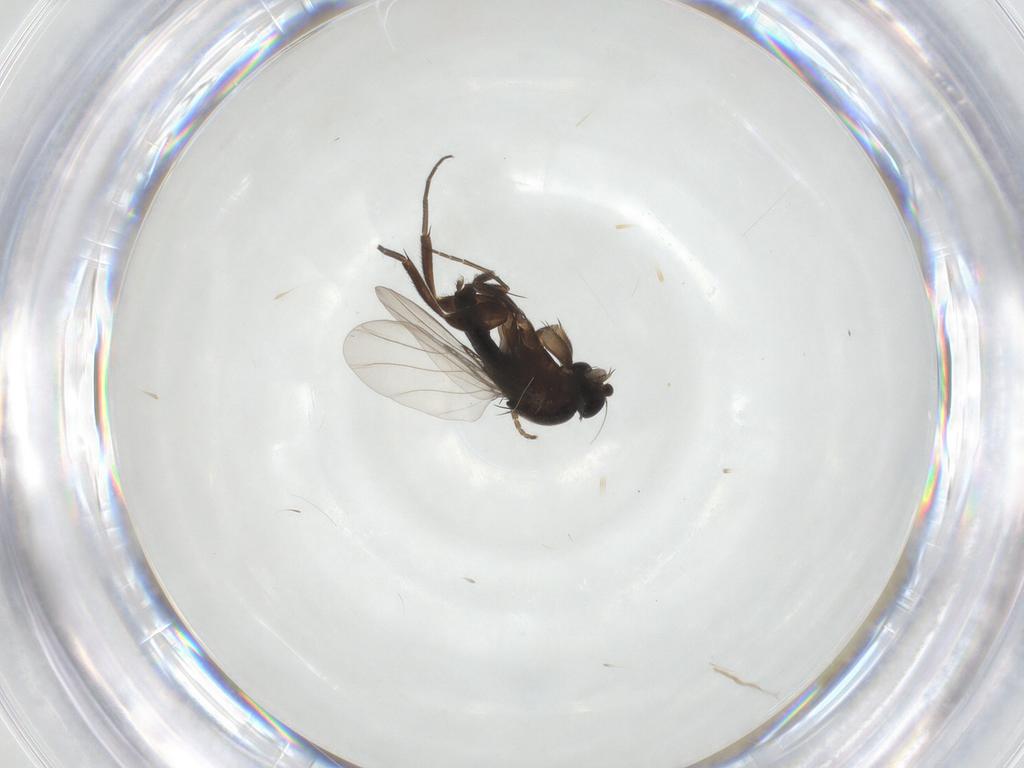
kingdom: Animalia
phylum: Arthropoda
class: Insecta
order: Diptera
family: Phoridae
